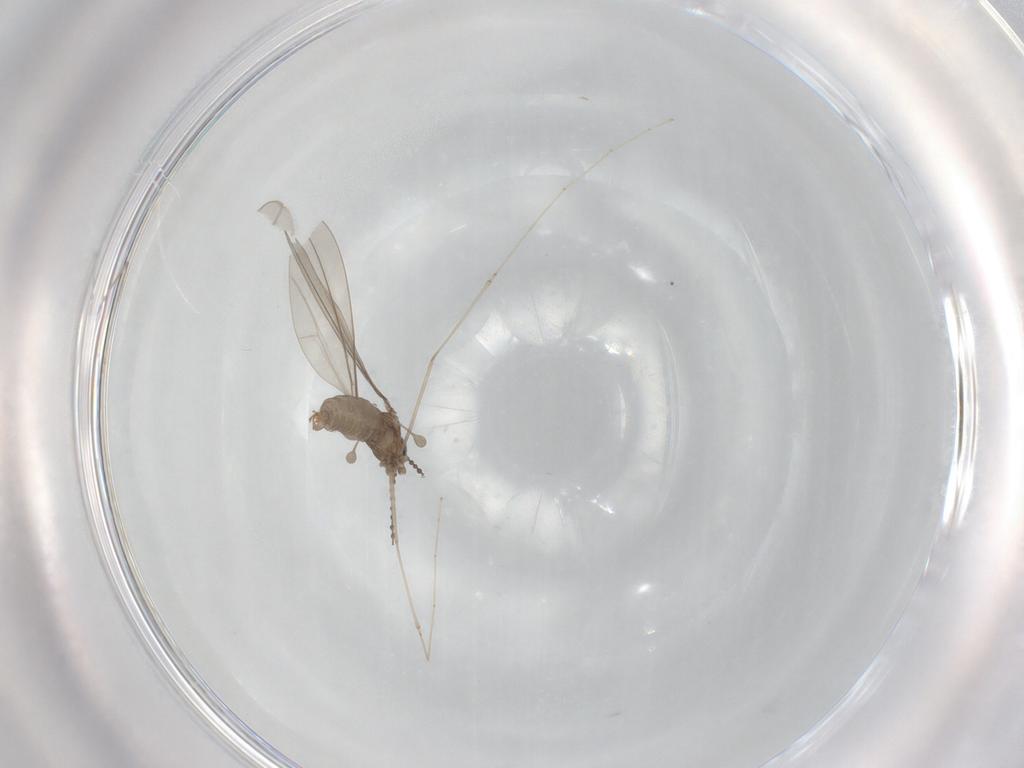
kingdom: Animalia
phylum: Arthropoda
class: Insecta
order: Diptera
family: Cecidomyiidae
